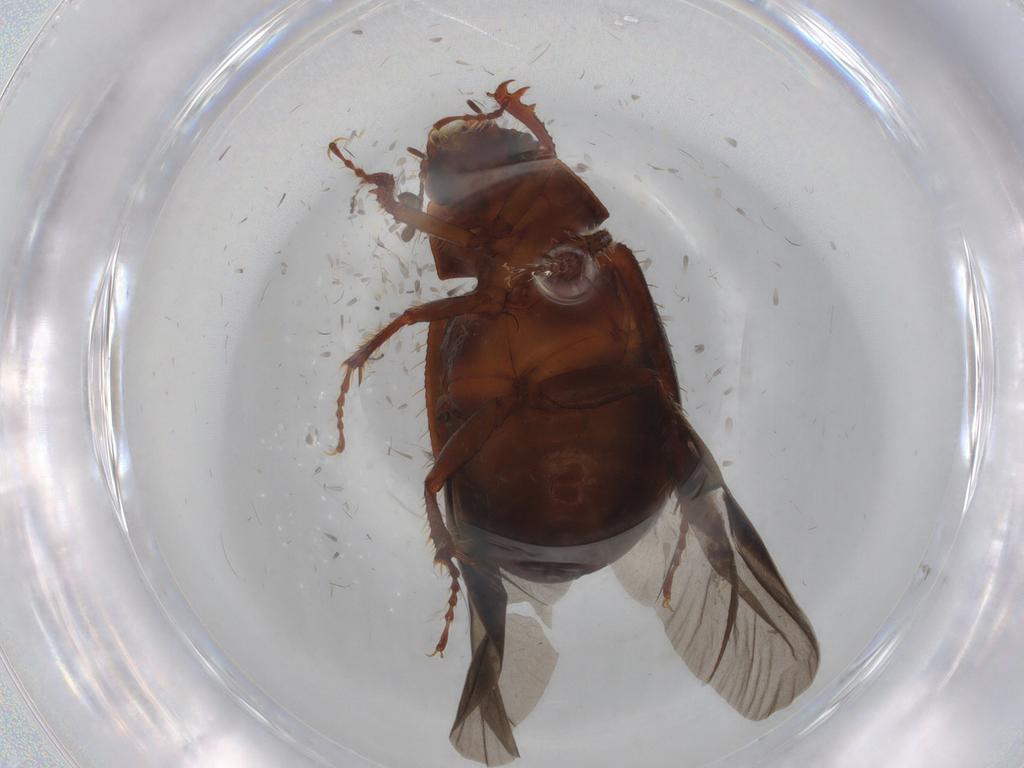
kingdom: Animalia
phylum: Arthropoda
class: Insecta
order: Coleoptera
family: Hybosoridae
